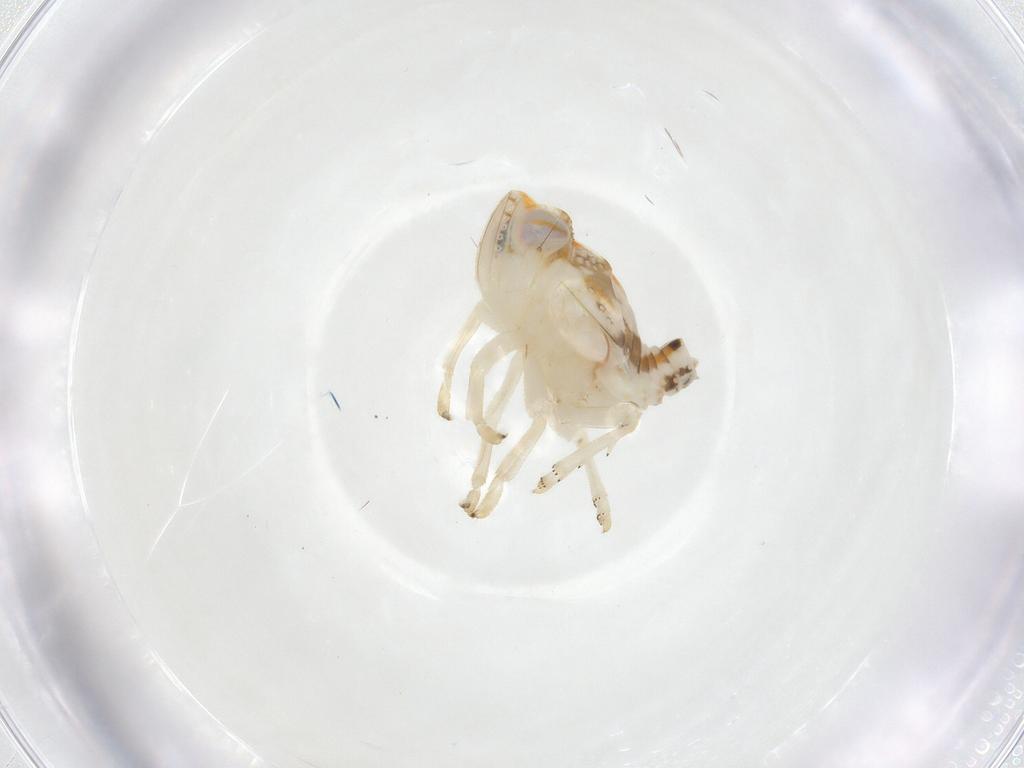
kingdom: Animalia
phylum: Arthropoda
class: Insecta
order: Hemiptera
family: Nogodinidae
